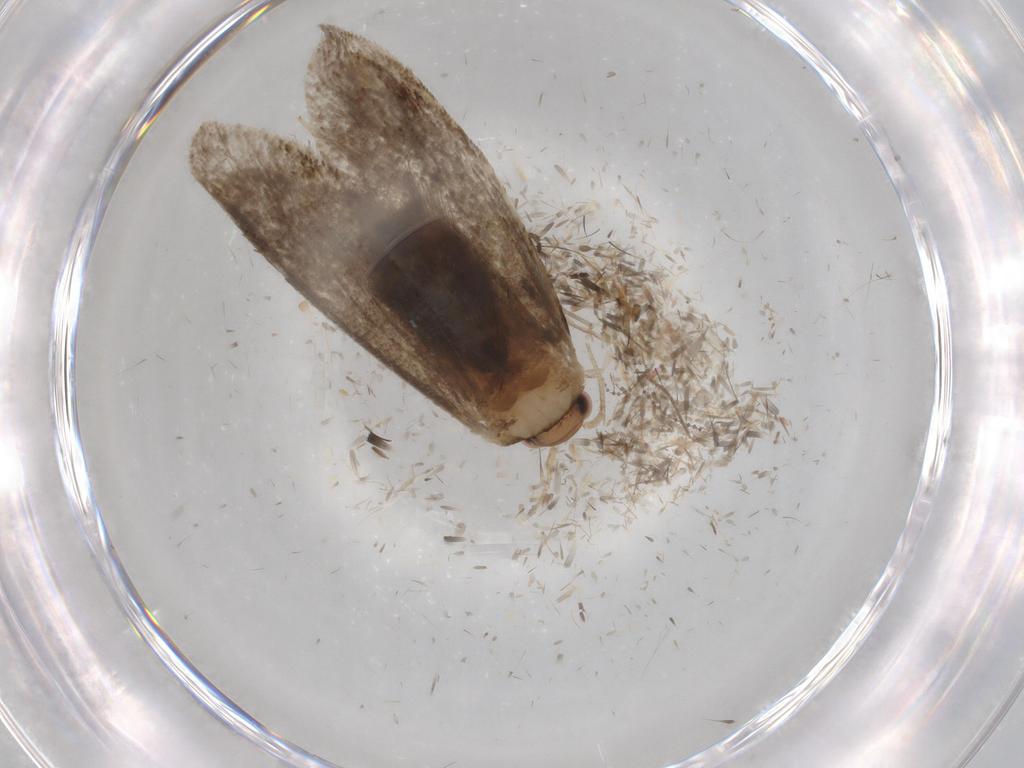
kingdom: Animalia
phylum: Arthropoda
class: Insecta
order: Lepidoptera
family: Tineidae
